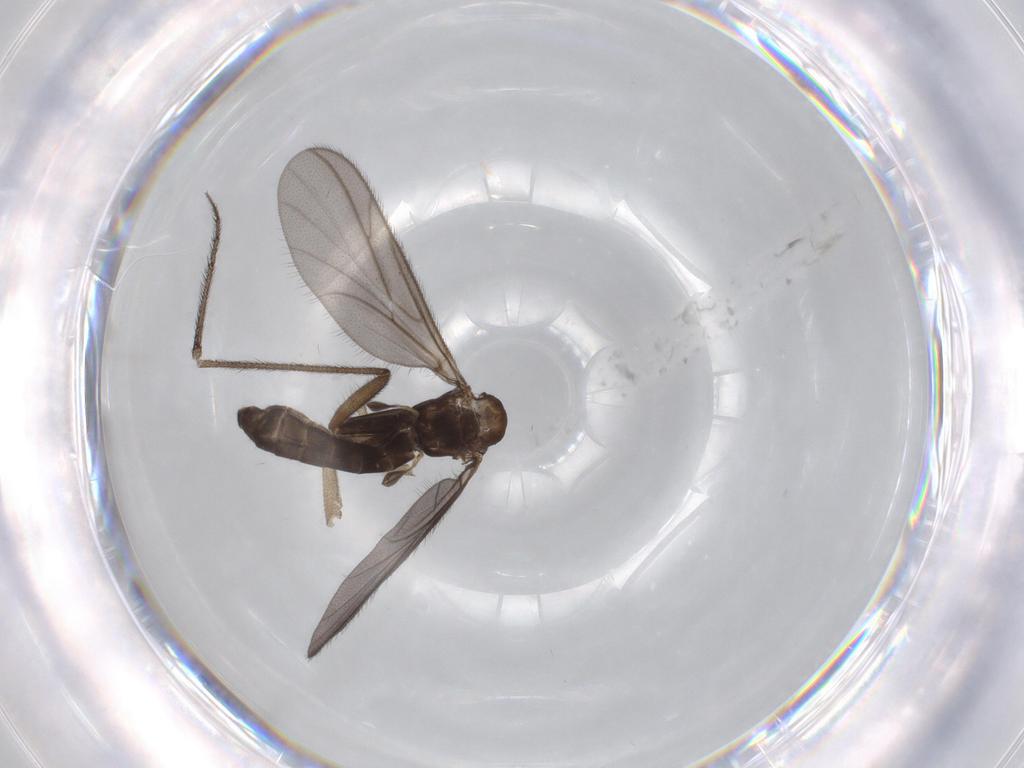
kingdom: Animalia
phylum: Arthropoda
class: Insecta
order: Diptera
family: Ditomyiidae
